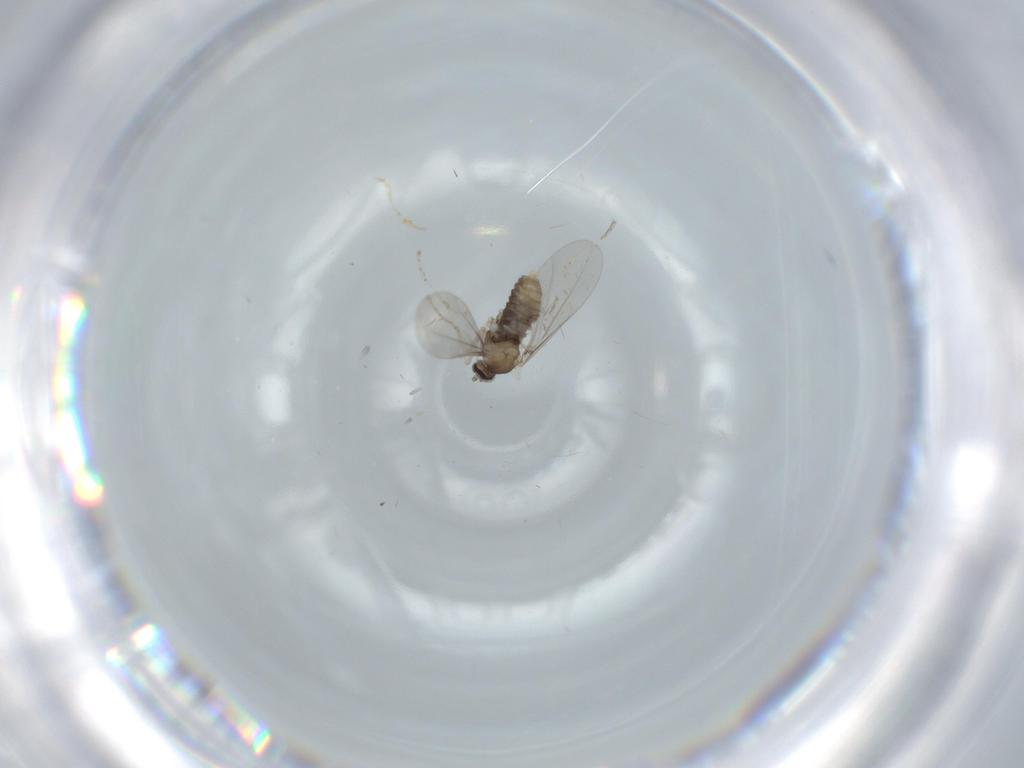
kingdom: Animalia
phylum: Arthropoda
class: Insecta
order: Diptera
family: Cecidomyiidae
